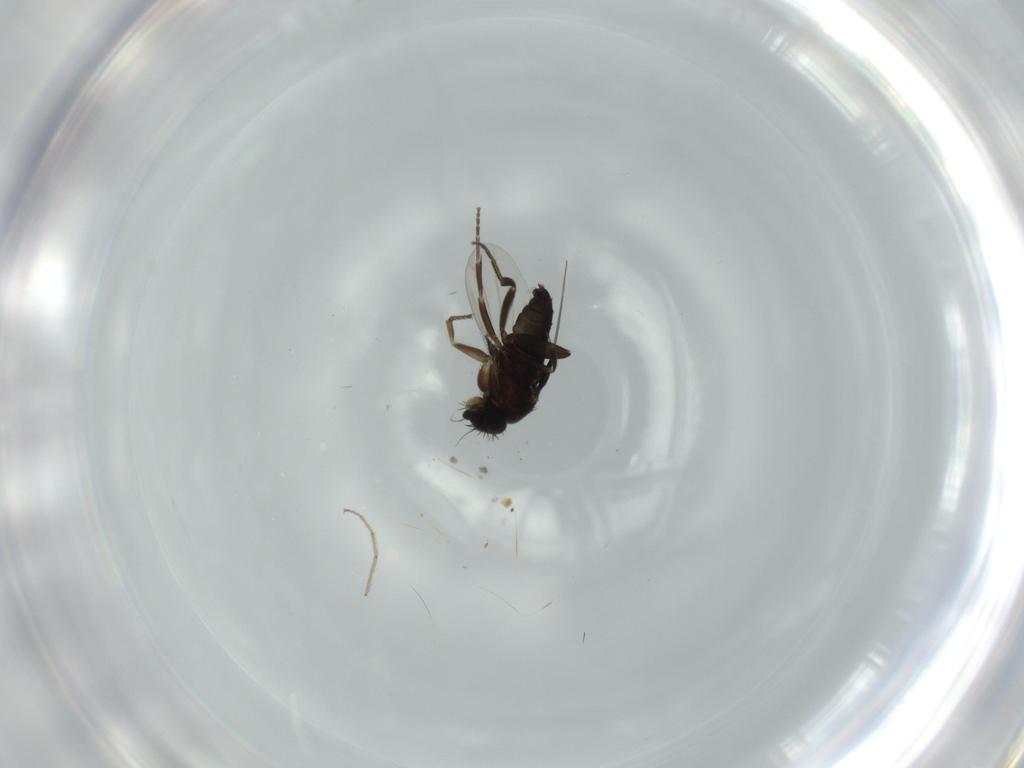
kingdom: Animalia
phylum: Arthropoda
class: Insecta
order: Diptera
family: Phoridae
